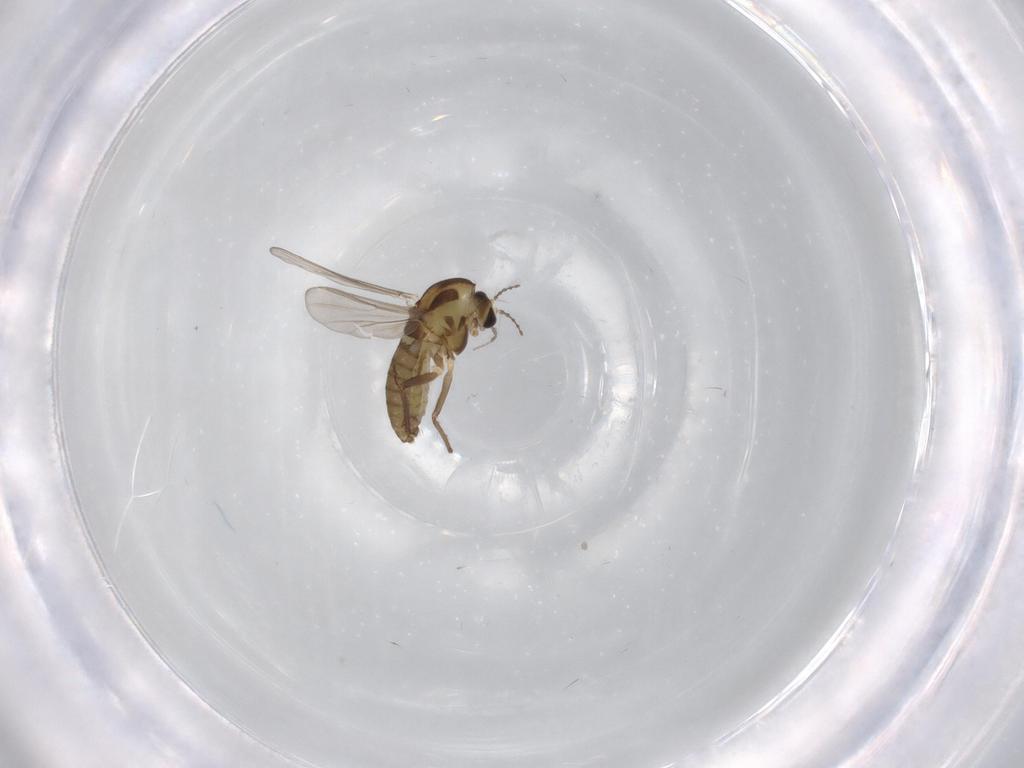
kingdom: Animalia
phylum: Arthropoda
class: Insecta
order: Diptera
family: Chironomidae
